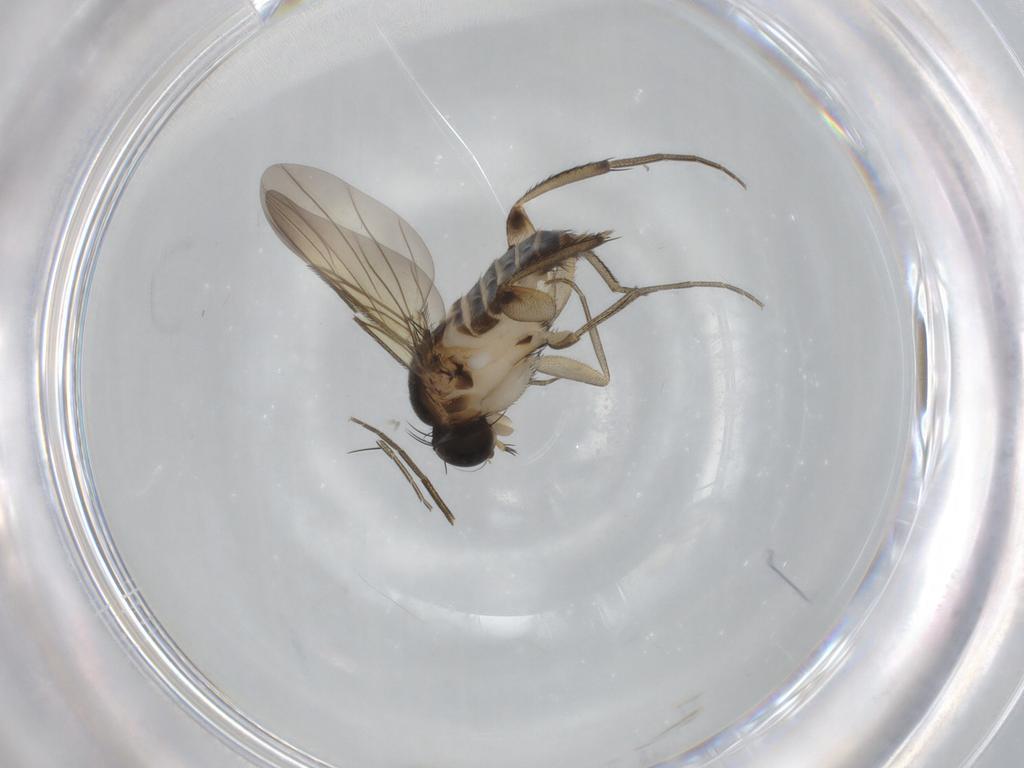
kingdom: Animalia
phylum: Arthropoda
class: Insecta
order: Diptera
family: Phoridae
